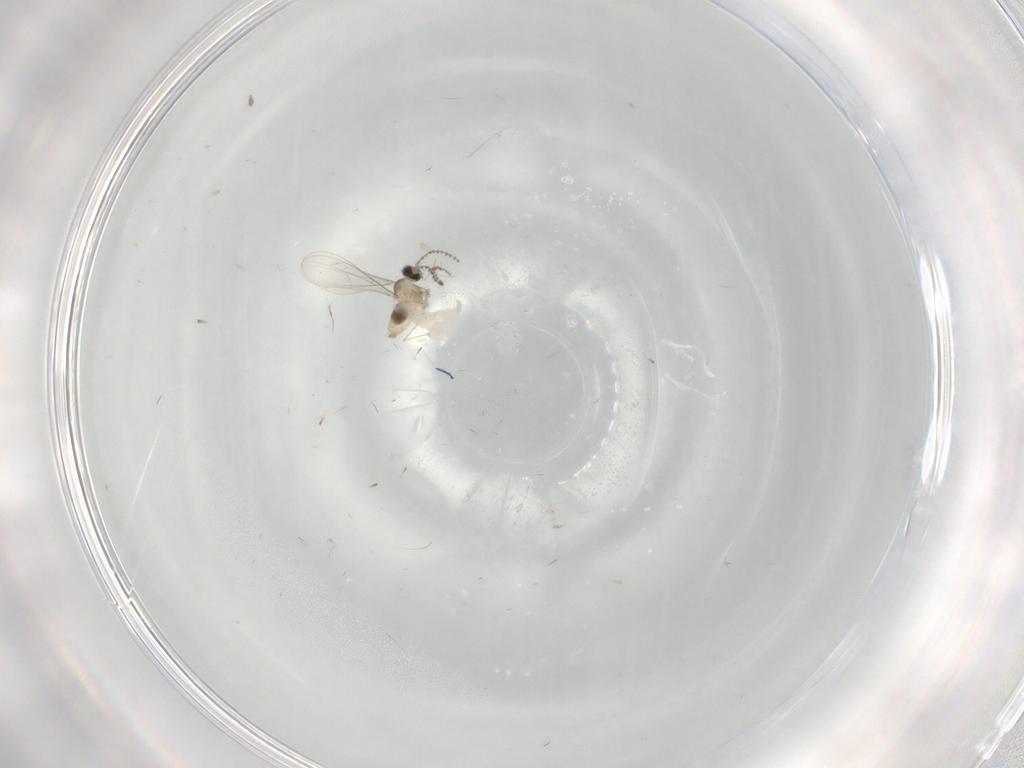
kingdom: Animalia
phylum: Arthropoda
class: Insecta
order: Diptera
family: Cecidomyiidae
